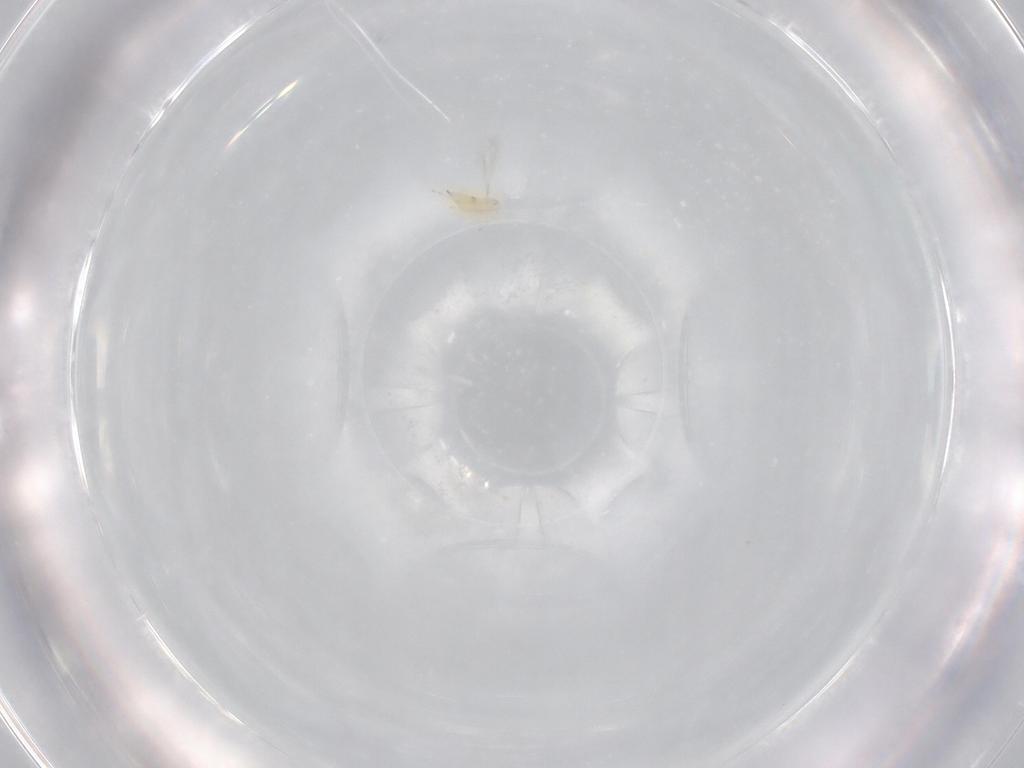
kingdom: Animalia
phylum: Arthropoda
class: Insecta
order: Hymenoptera
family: Mymaridae
